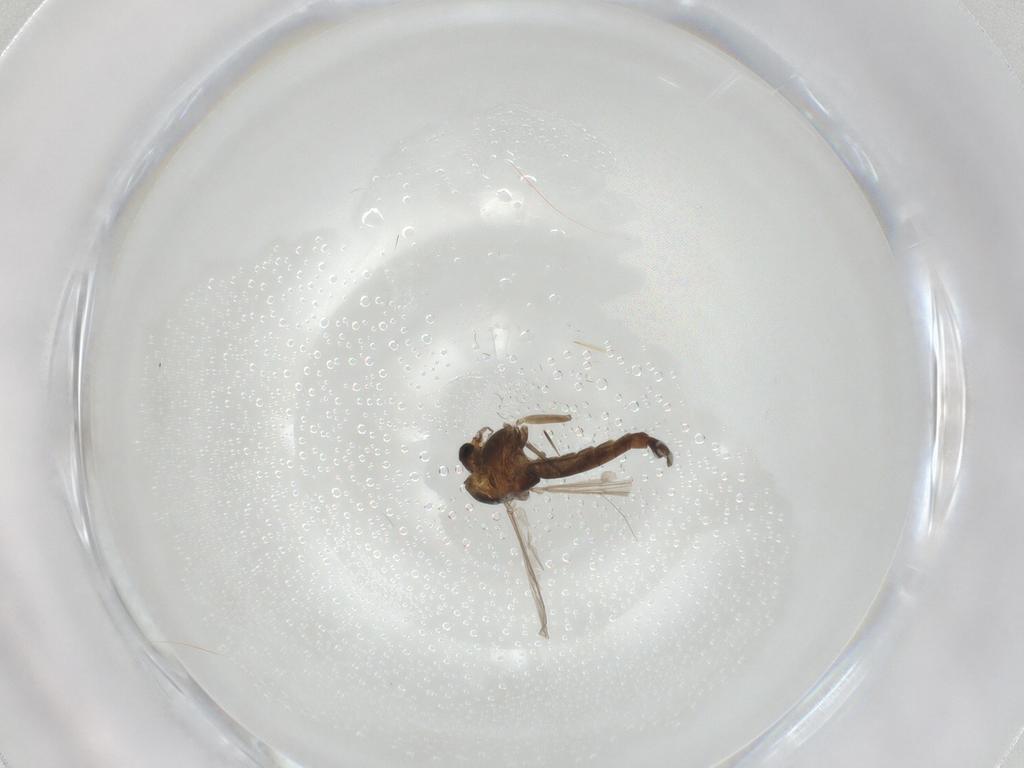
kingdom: Animalia
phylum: Arthropoda
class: Insecta
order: Diptera
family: Chironomidae
